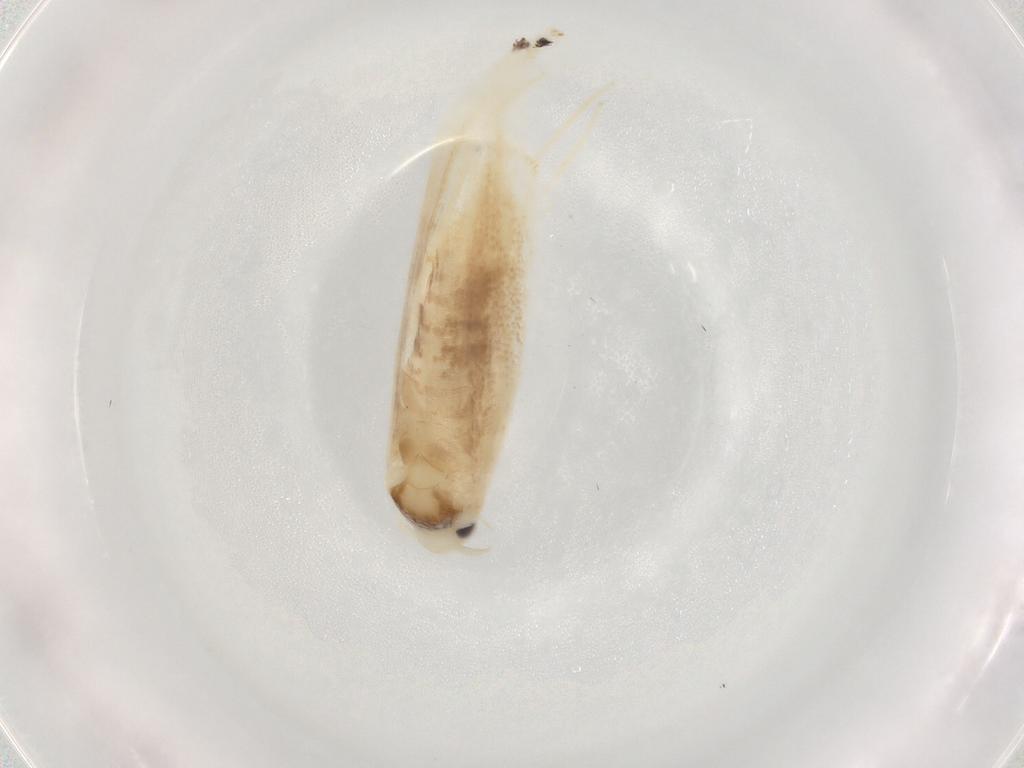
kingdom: Animalia
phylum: Arthropoda
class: Insecta
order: Lepidoptera
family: Gracillariidae
